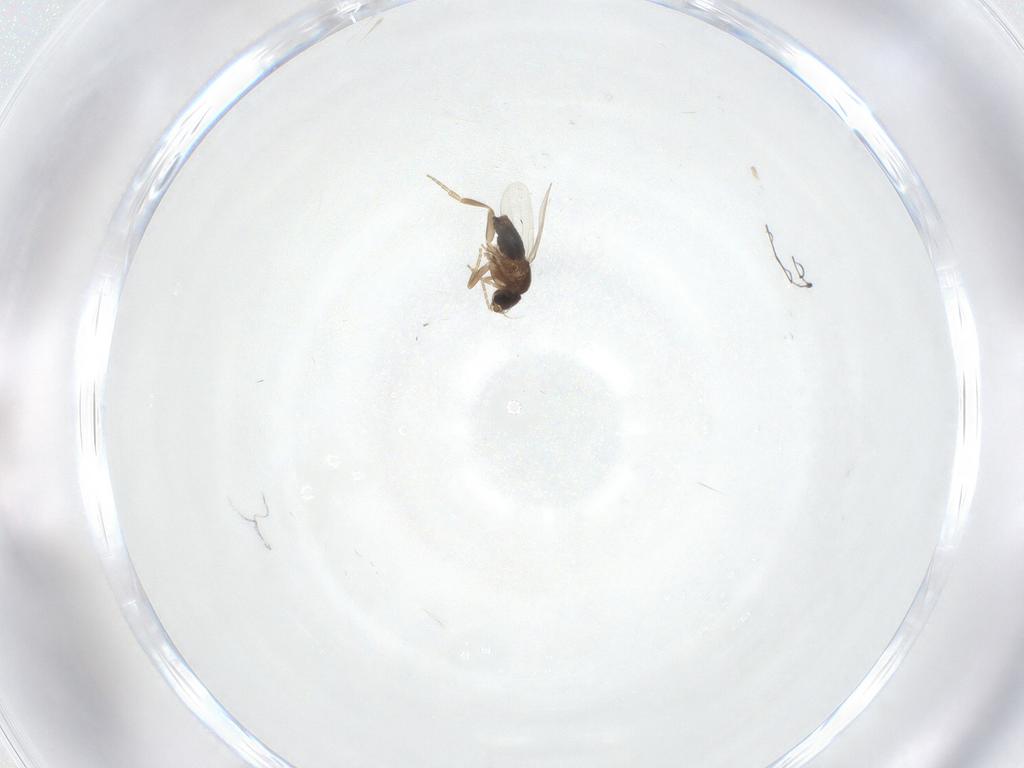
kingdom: Animalia
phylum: Arthropoda
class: Insecta
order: Diptera
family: Cecidomyiidae
